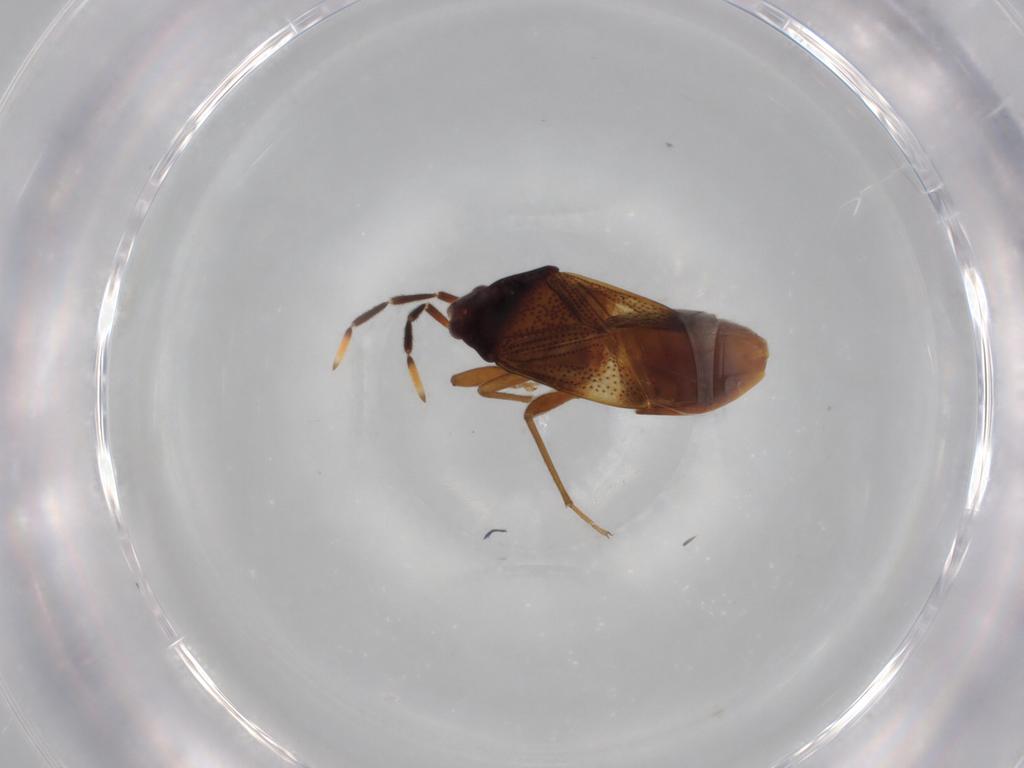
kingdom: Animalia
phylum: Arthropoda
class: Insecta
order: Hemiptera
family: Rhyparochromidae
